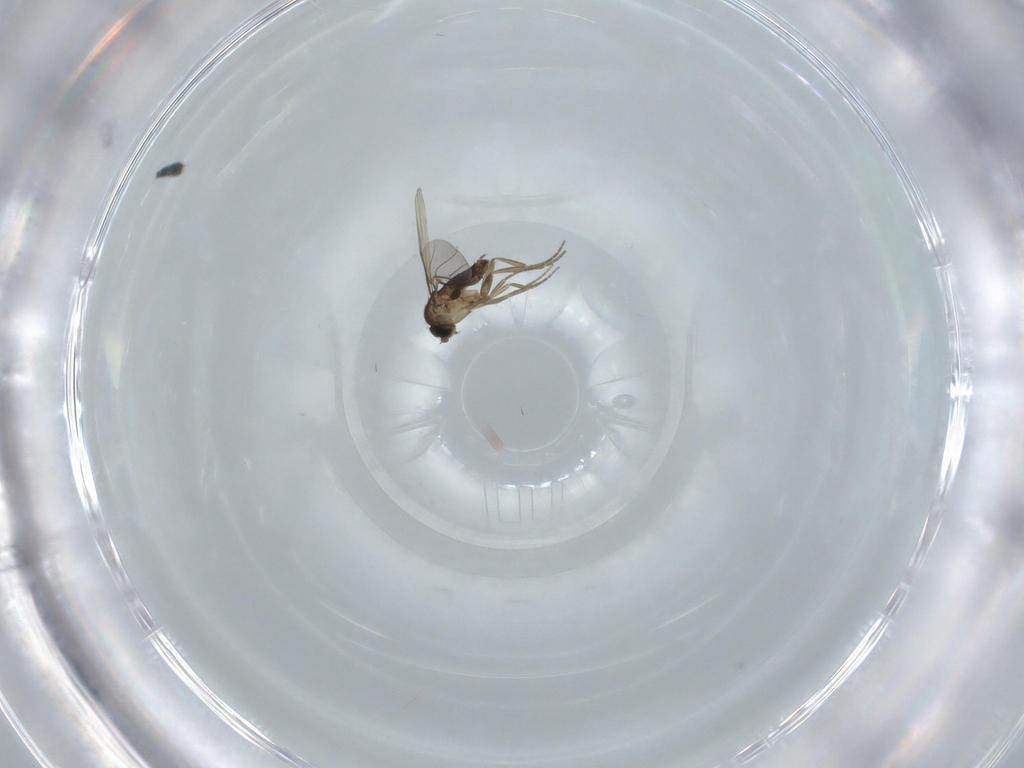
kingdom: Animalia
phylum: Arthropoda
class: Insecta
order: Diptera
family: Phoridae
